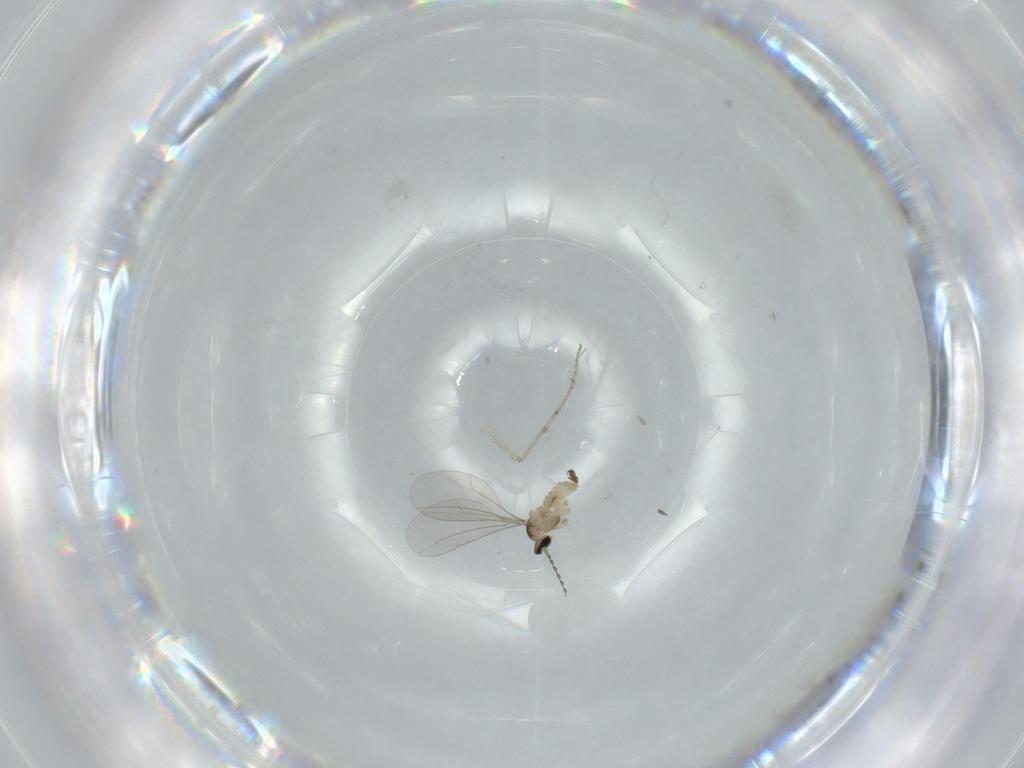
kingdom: Animalia
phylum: Arthropoda
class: Insecta
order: Diptera
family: Cecidomyiidae
